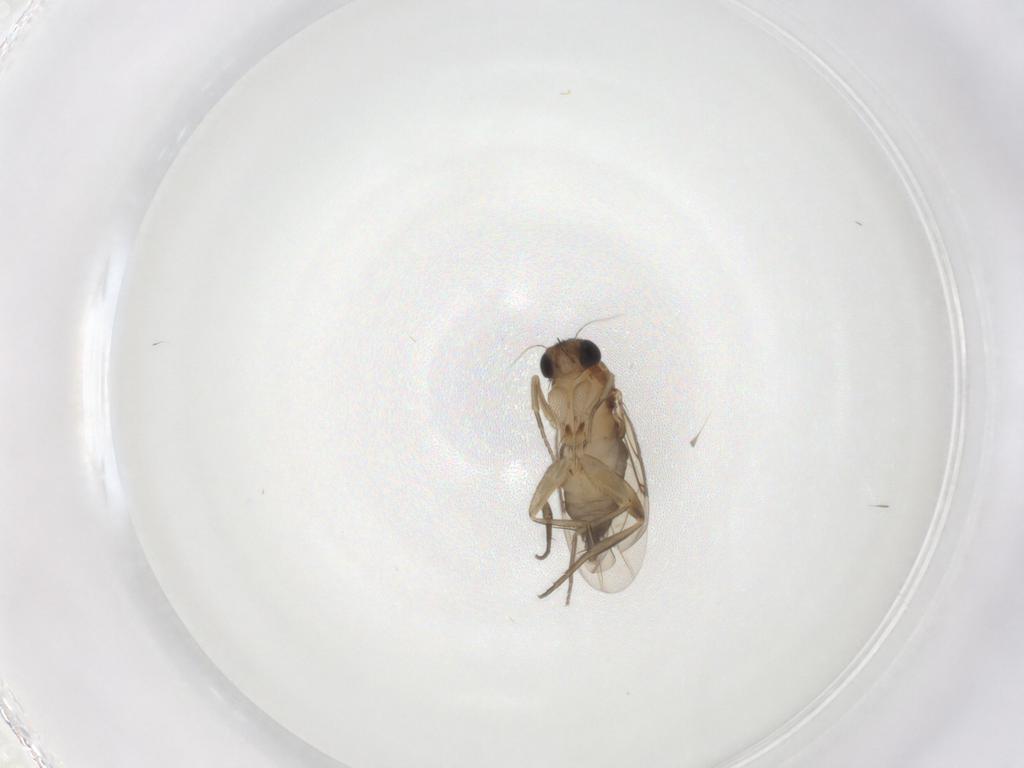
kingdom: Animalia
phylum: Arthropoda
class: Insecta
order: Diptera
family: Phoridae
